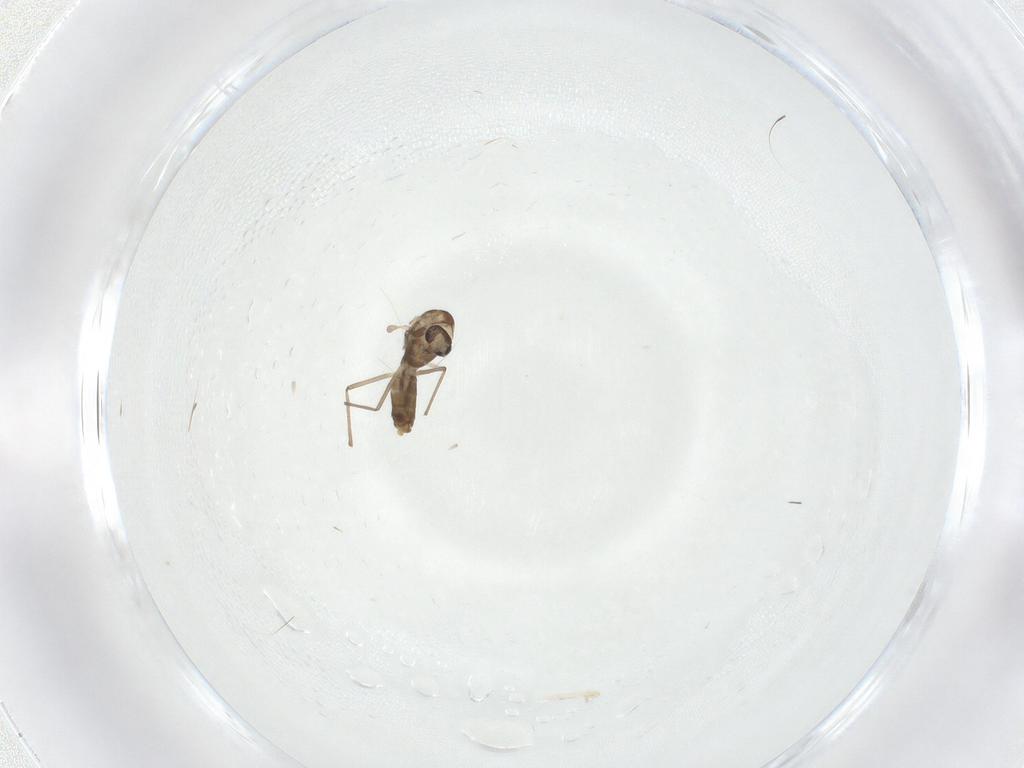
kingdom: Animalia
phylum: Arthropoda
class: Insecta
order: Diptera
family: Chironomidae
